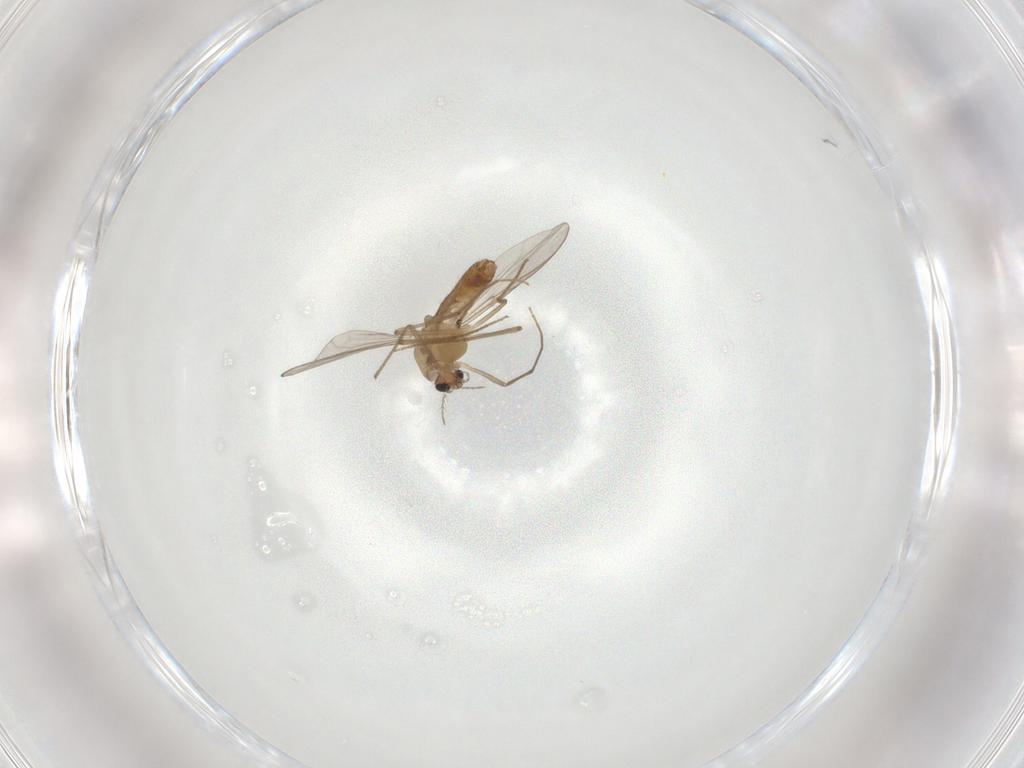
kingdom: Animalia
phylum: Arthropoda
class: Insecta
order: Diptera
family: Chironomidae
